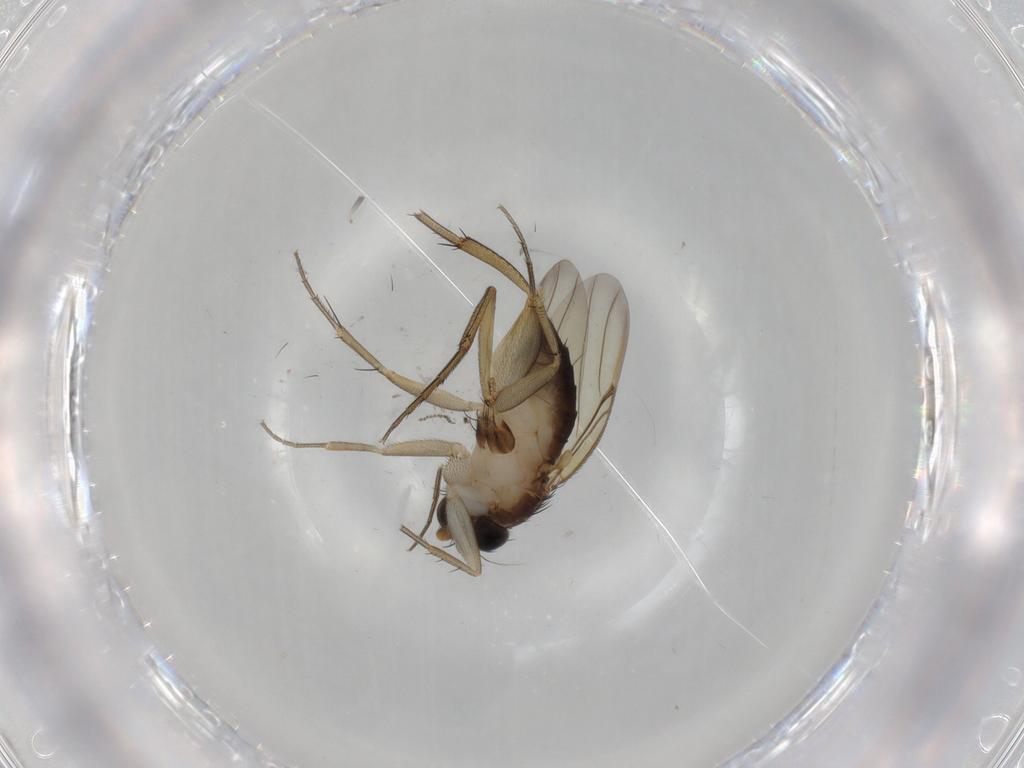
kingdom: Animalia
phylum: Arthropoda
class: Insecta
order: Diptera
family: Phoridae
